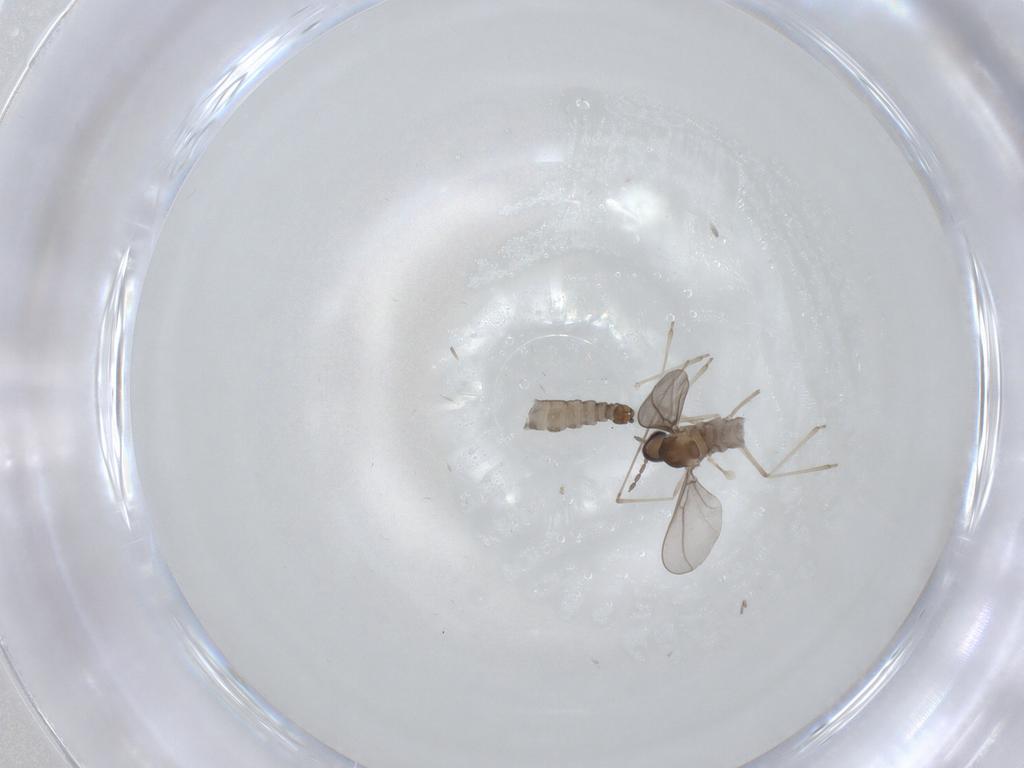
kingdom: Animalia
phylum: Arthropoda
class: Insecta
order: Diptera
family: Cecidomyiidae
